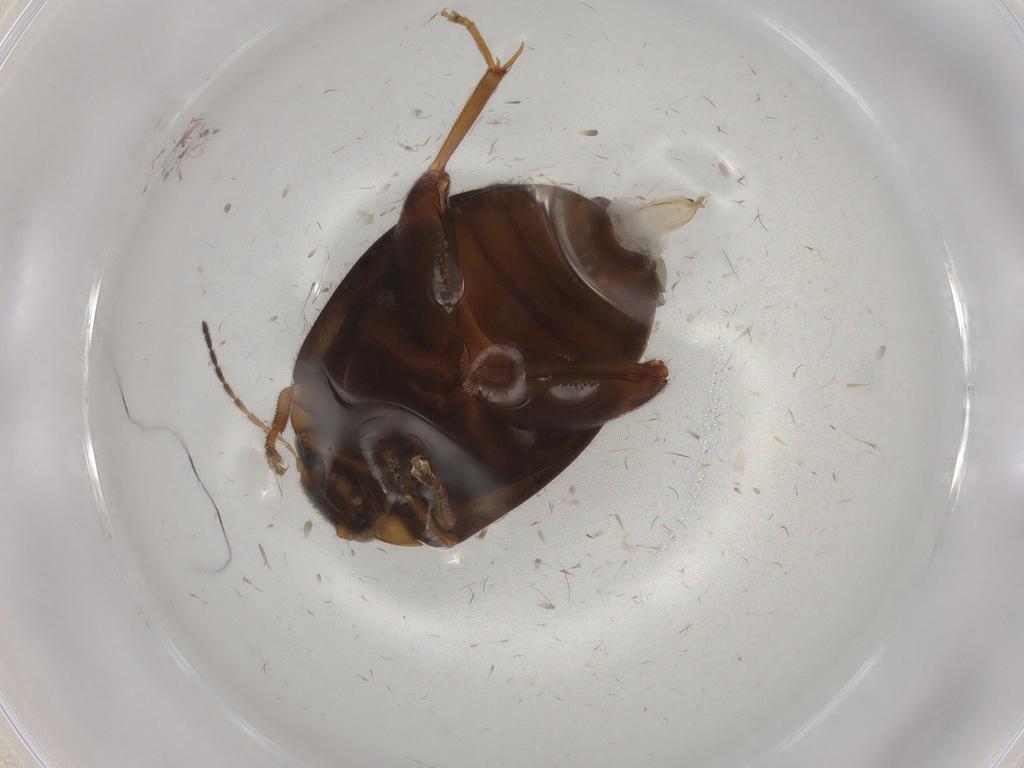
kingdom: Animalia
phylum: Arthropoda
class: Insecta
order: Coleoptera
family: Scirtidae
